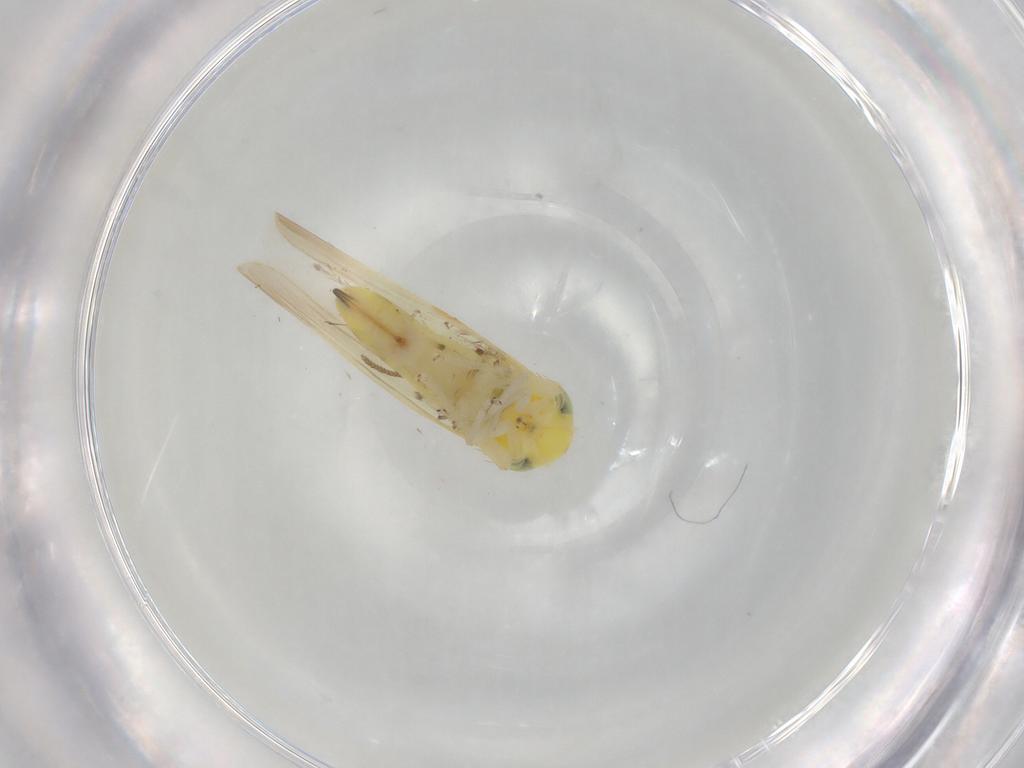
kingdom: Animalia
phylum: Arthropoda
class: Insecta
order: Hemiptera
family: Aleyrodidae
